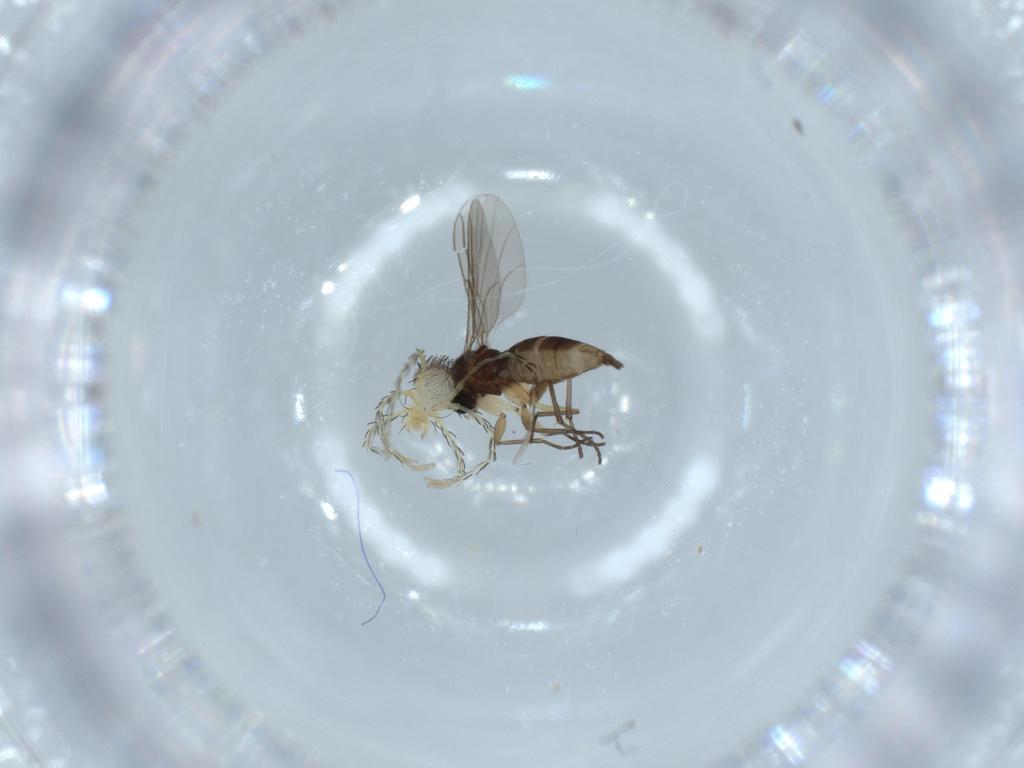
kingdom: Animalia
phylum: Arthropoda
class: Insecta
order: Diptera
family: Sciaridae
